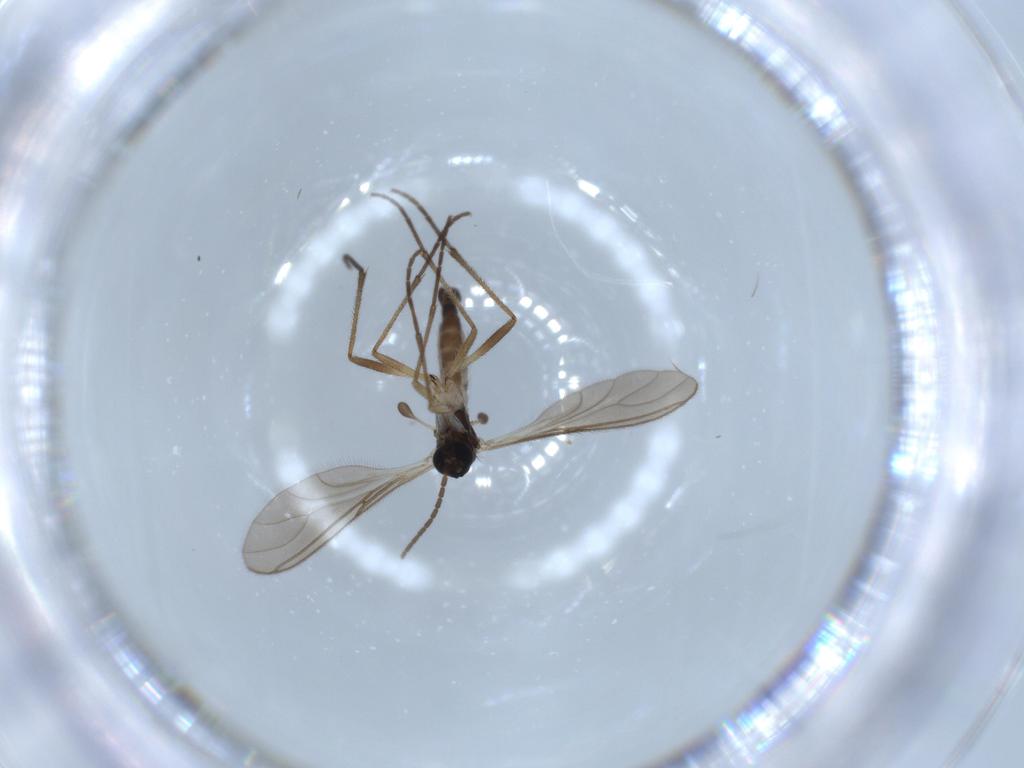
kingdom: Animalia
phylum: Arthropoda
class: Insecta
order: Diptera
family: Sciaridae
